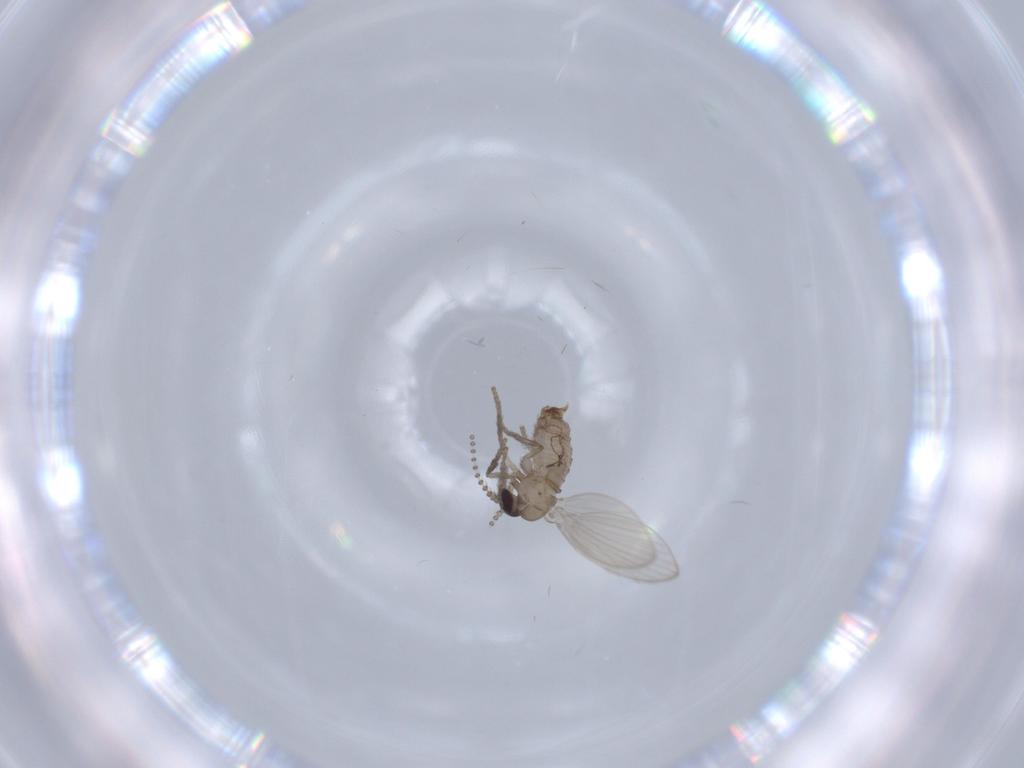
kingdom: Animalia
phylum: Arthropoda
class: Insecta
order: Diptera
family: Psychodidae
